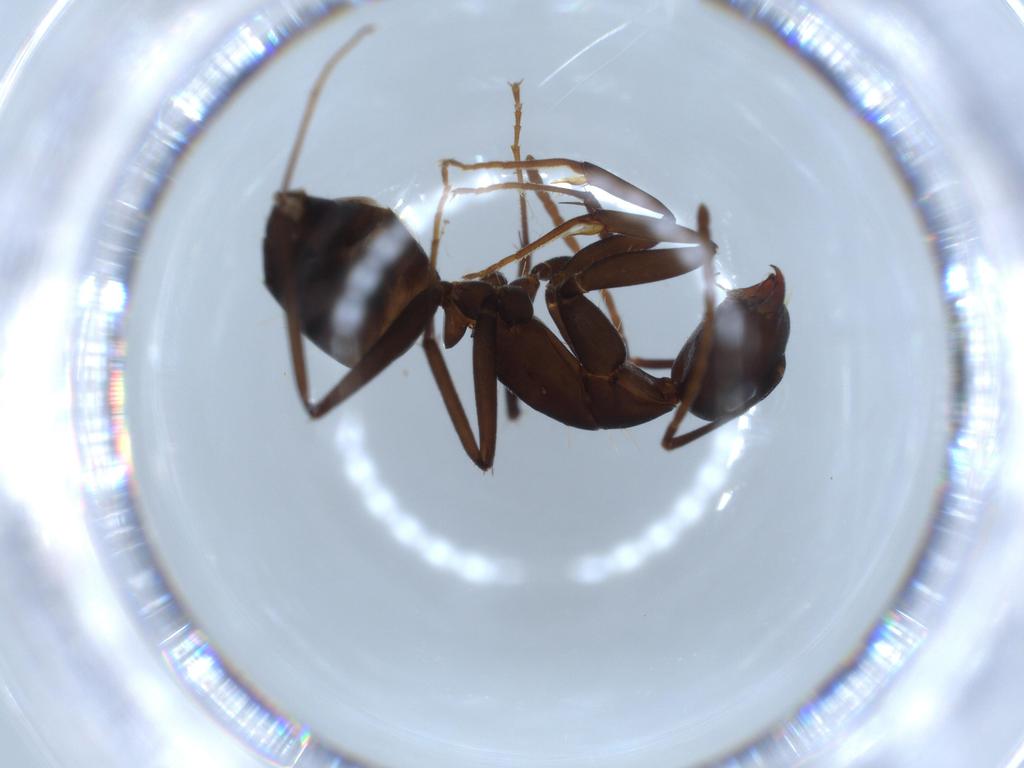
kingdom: Animalia
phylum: Arthropoda
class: Insecta
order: Hymenoptera
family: Formicidae
